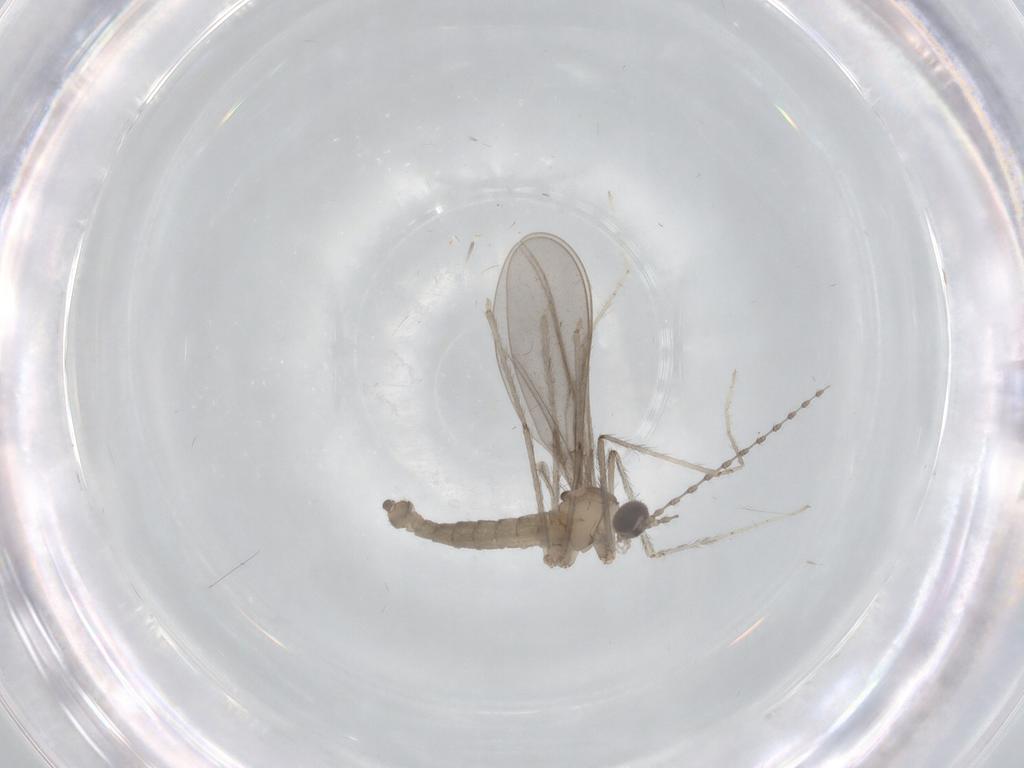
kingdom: Animalia
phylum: Arthropoda
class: Insecta
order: Diptera
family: Cecidomyiidae
